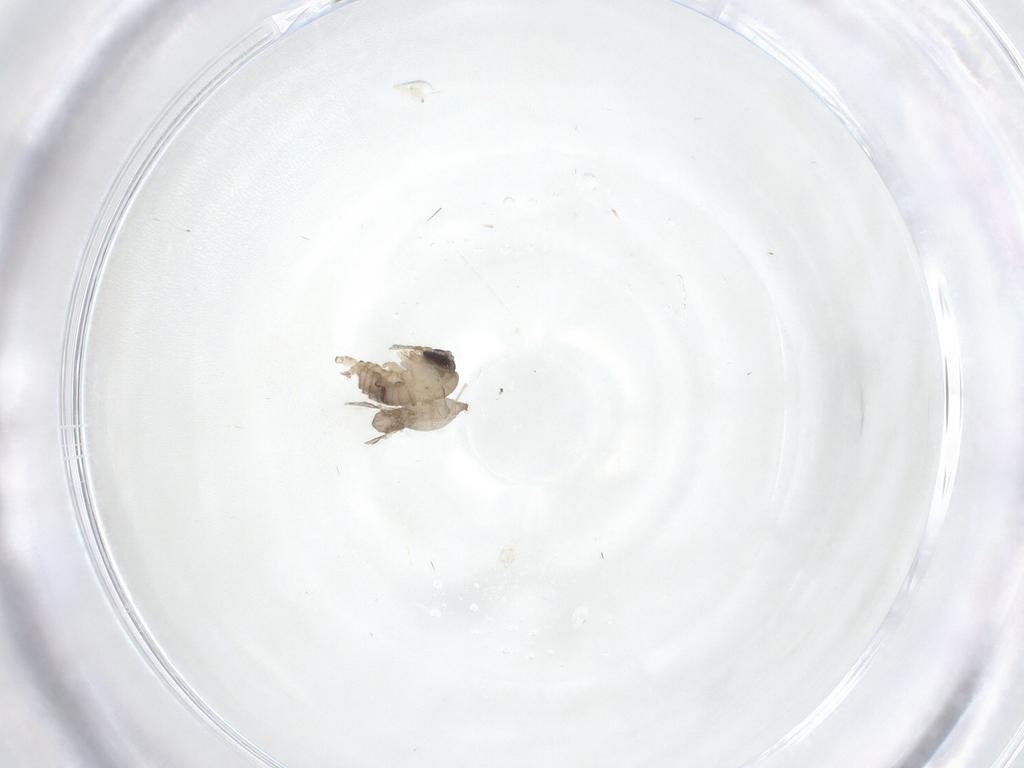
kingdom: Animalia
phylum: Arthropoda
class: Insecta
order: Diptera
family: Psychodidae
